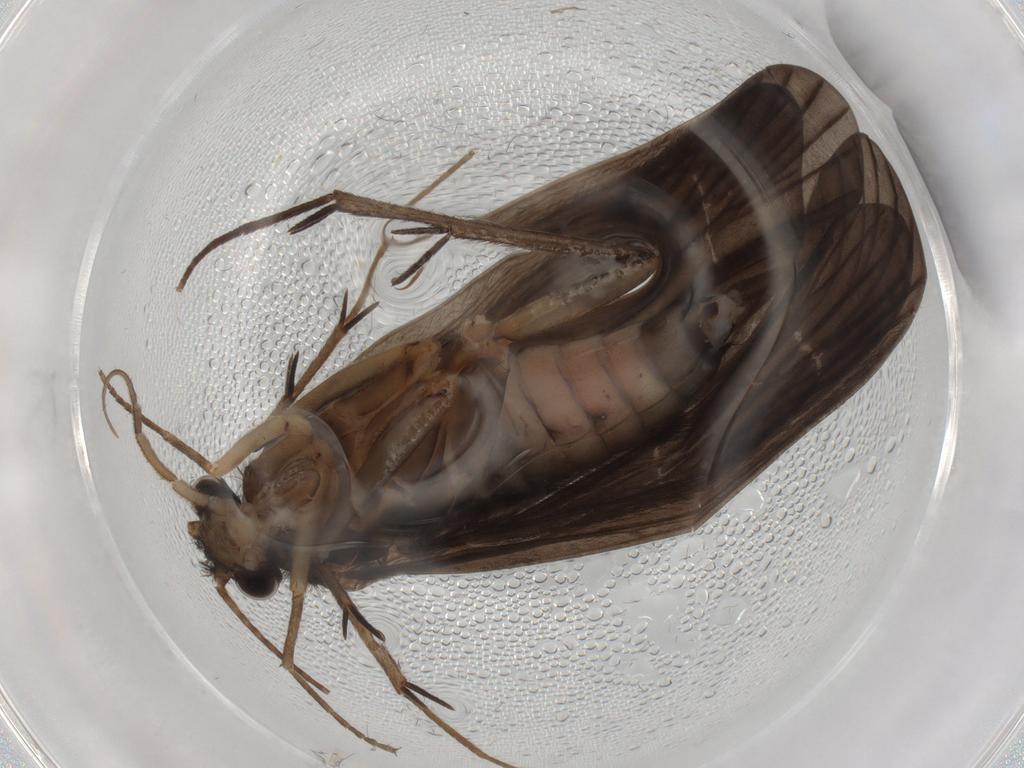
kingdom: Animalia
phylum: Arthropoda
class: Insecta
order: Trichoptera
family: Philopotamidae
